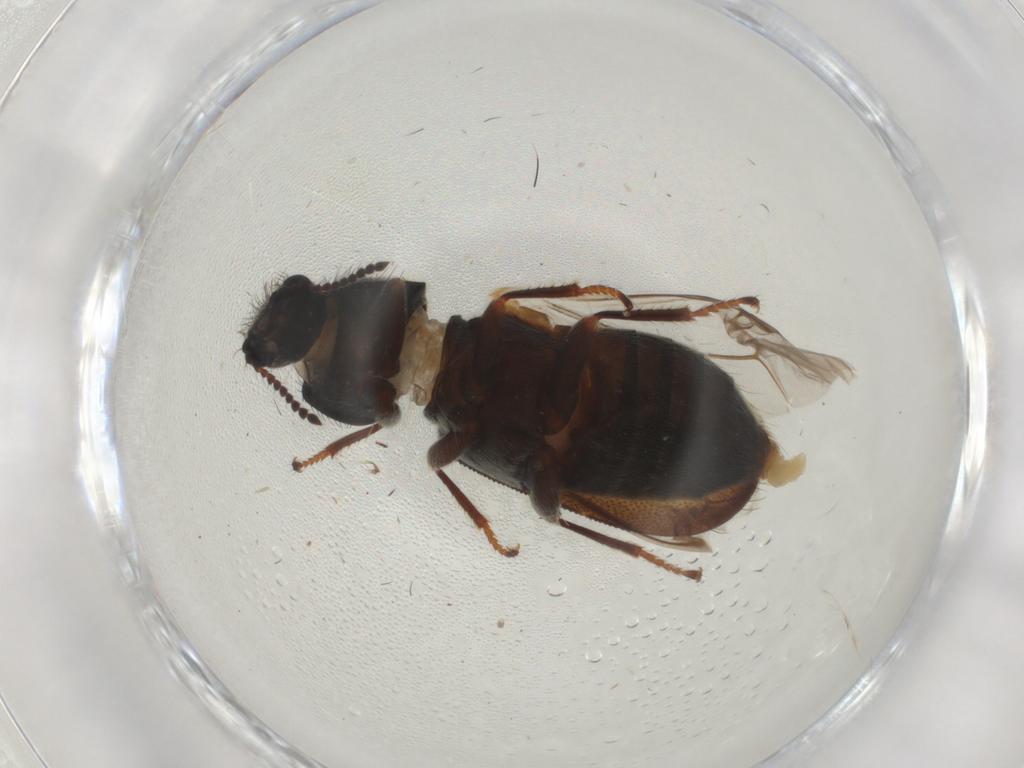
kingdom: Animalia
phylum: Arthropoda
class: Insecta
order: Coleoptera
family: Melyridae
